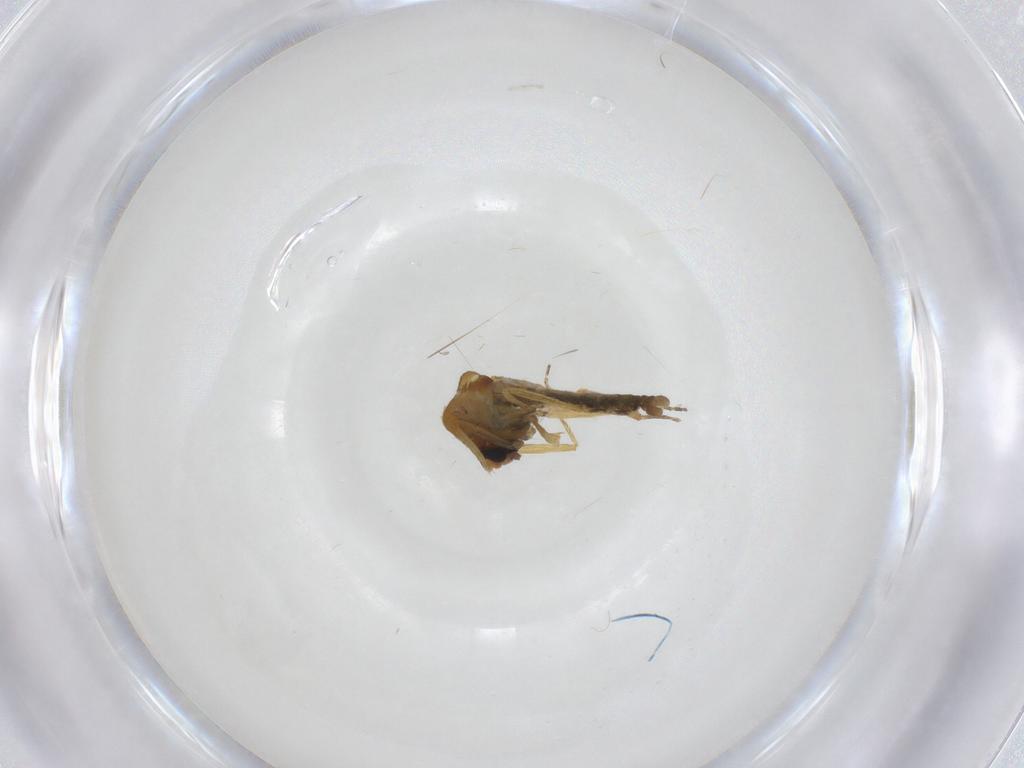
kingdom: Animalia
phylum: Arthropoda
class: Insecta
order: Diptera
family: Ceratopogonidae
